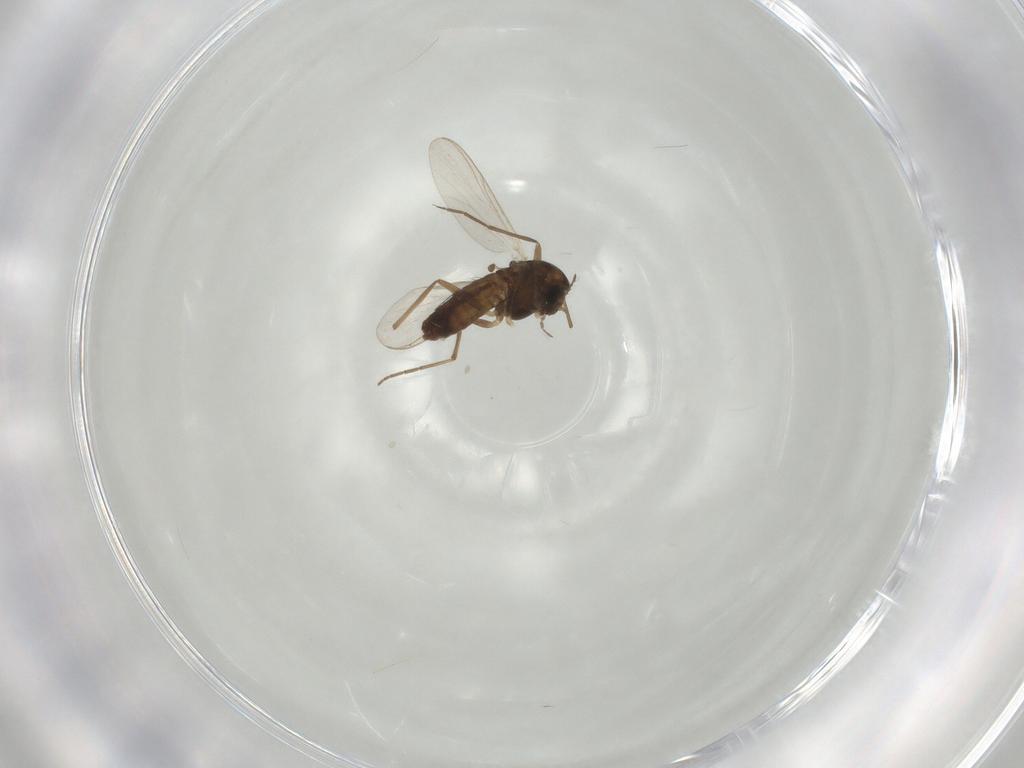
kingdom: Animalia
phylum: Arthropoda
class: Insecta
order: Diptera
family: Chironomidae
